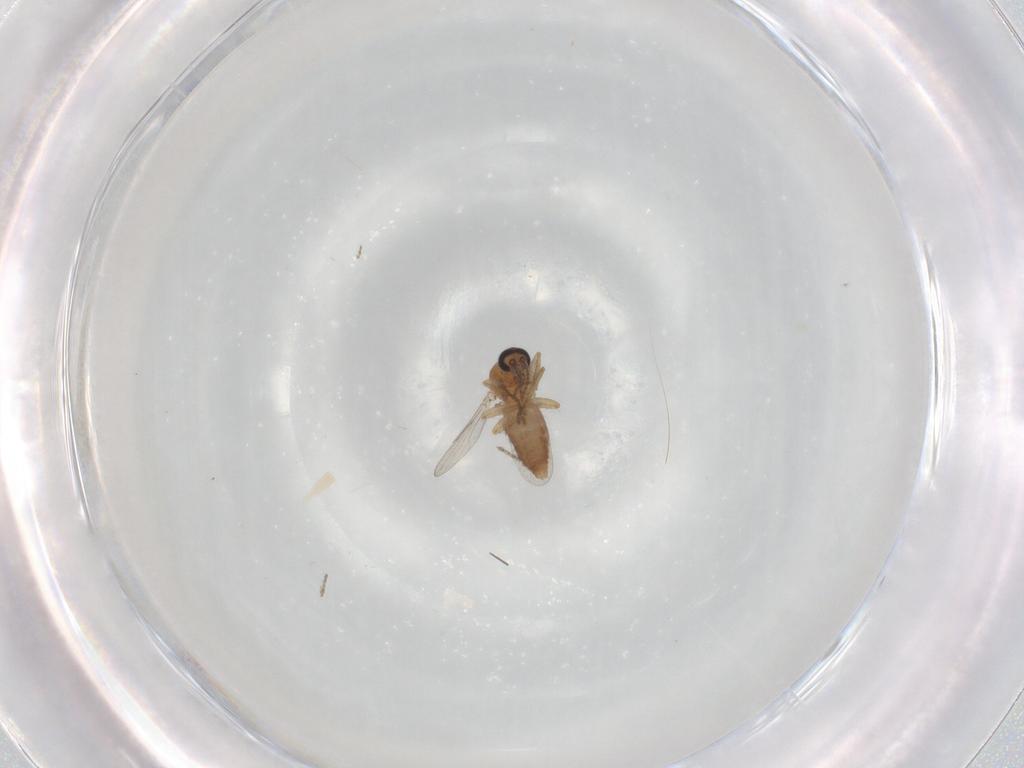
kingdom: Animalia
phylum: Arthropoda
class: Insecta
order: Diptera
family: Ceratopogonidae
